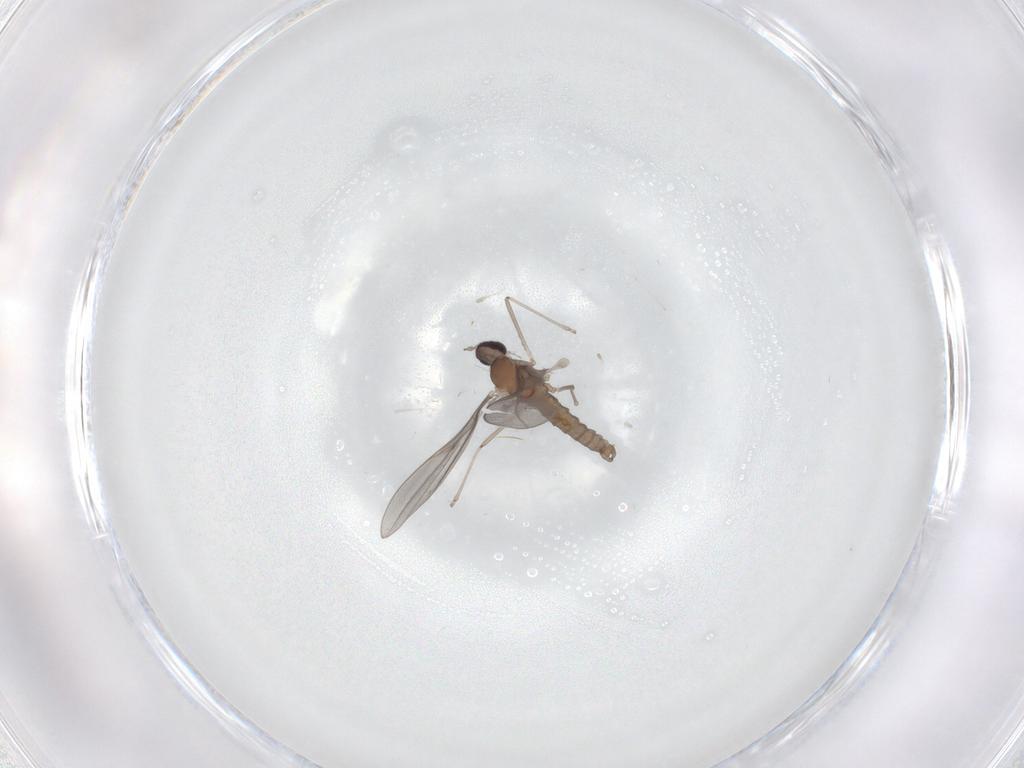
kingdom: Animalia
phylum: Arthropoda
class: Insecta
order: Diptera
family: Cecidomyiidae
